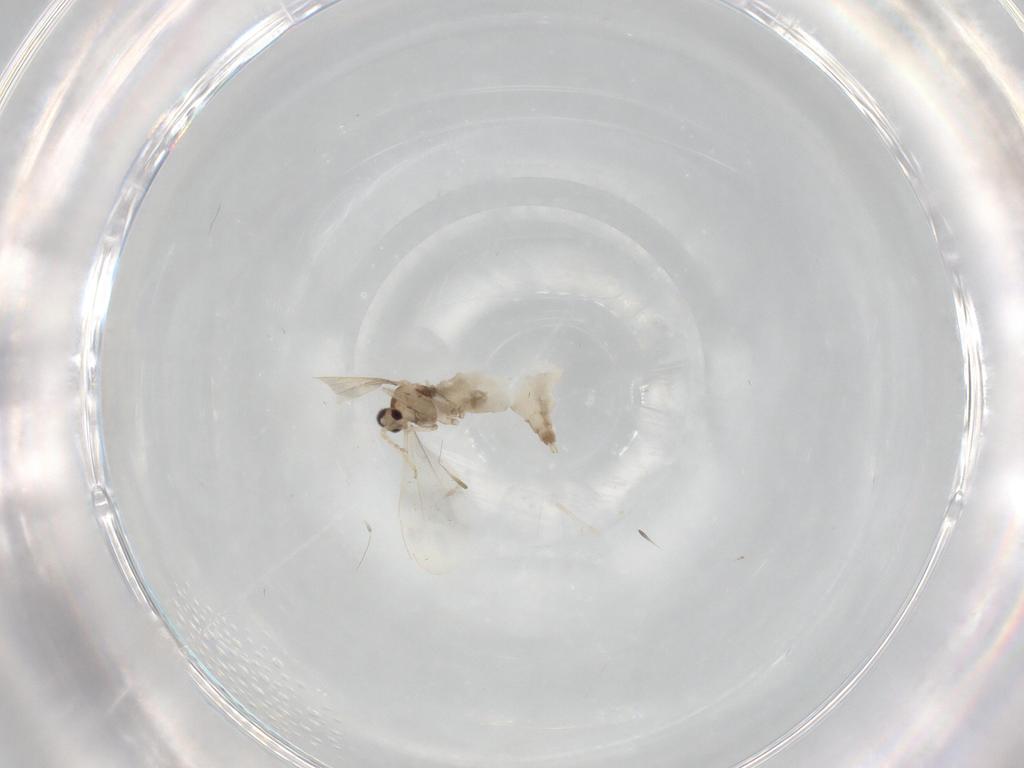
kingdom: Animalia
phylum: Arthropoda
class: Insecta
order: Diptera
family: Cecidomyiidae
